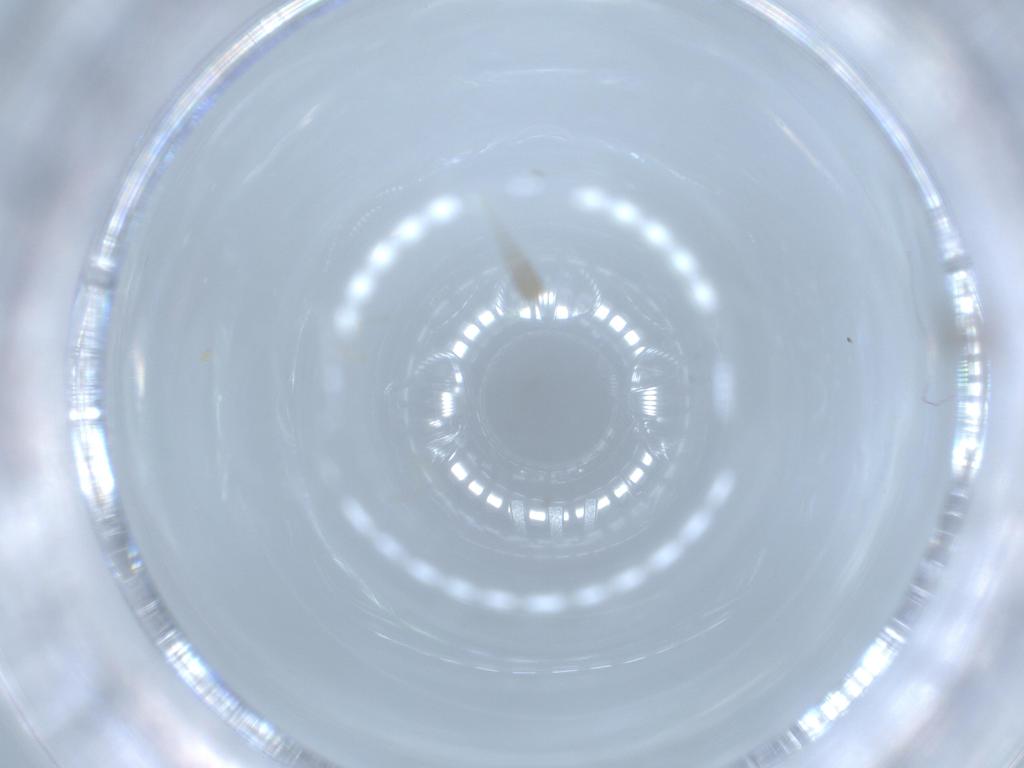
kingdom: Animalia
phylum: Arthropoda
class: Insecta
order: Diptera
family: Cecidomyiidae
